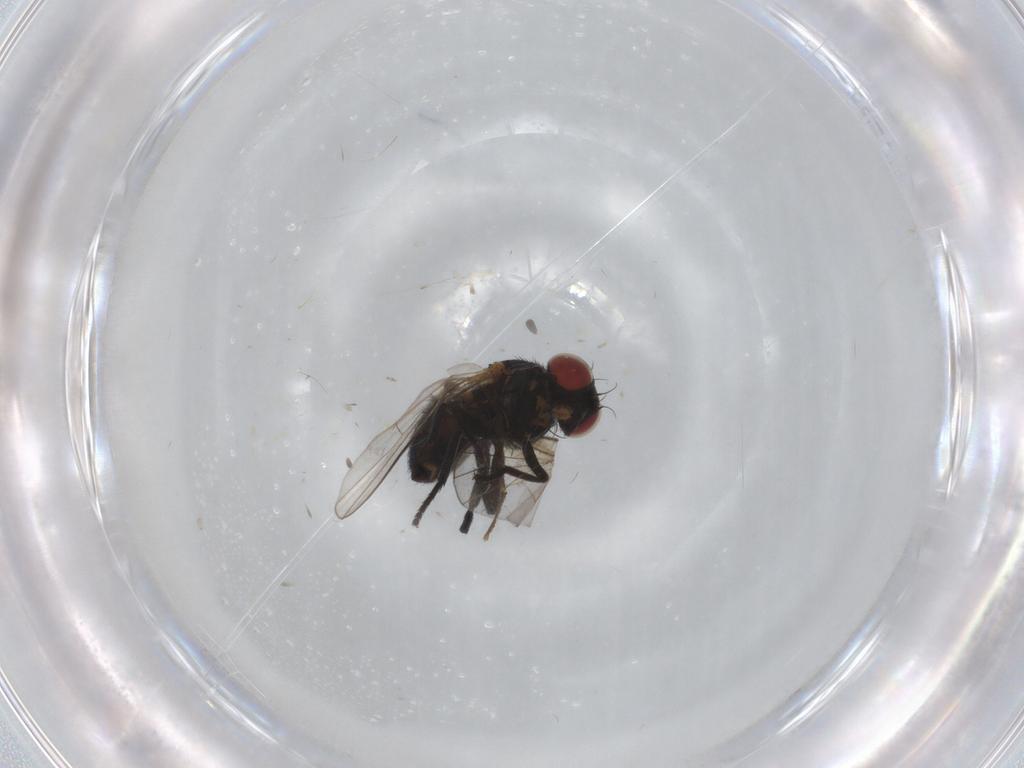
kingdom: Animalia
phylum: Arthropoda
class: Insecta
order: Diptera
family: Agromyzidae
